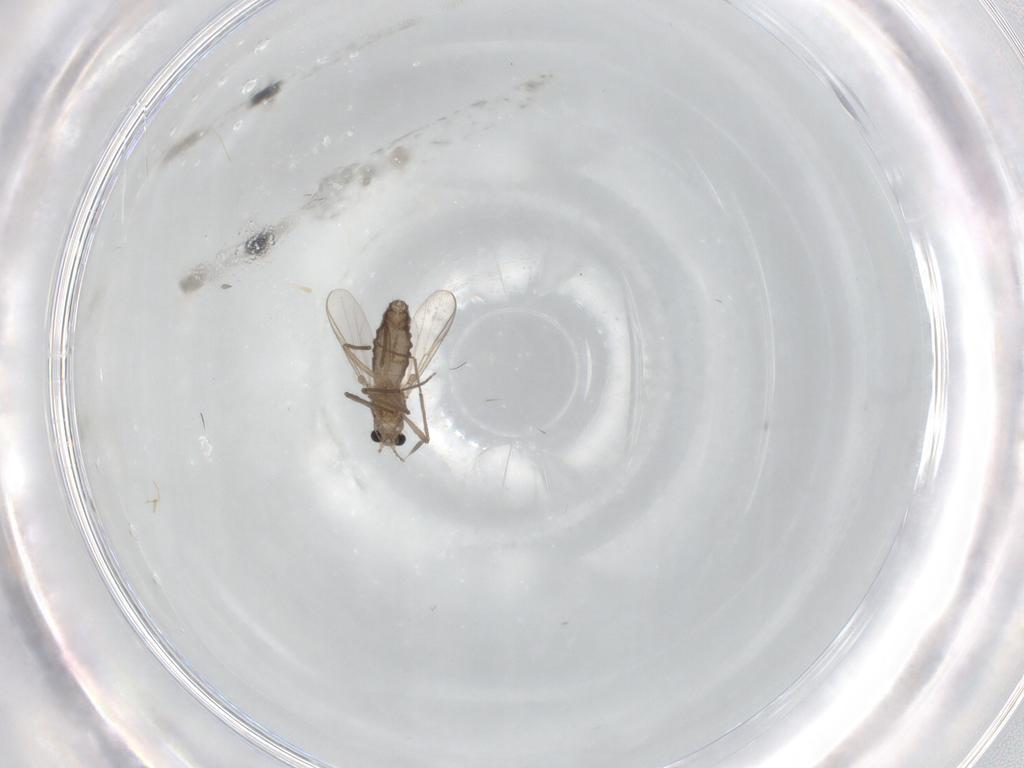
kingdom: Animalia
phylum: Arthropoda
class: Insecta
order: Diptera
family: Chironomidae
